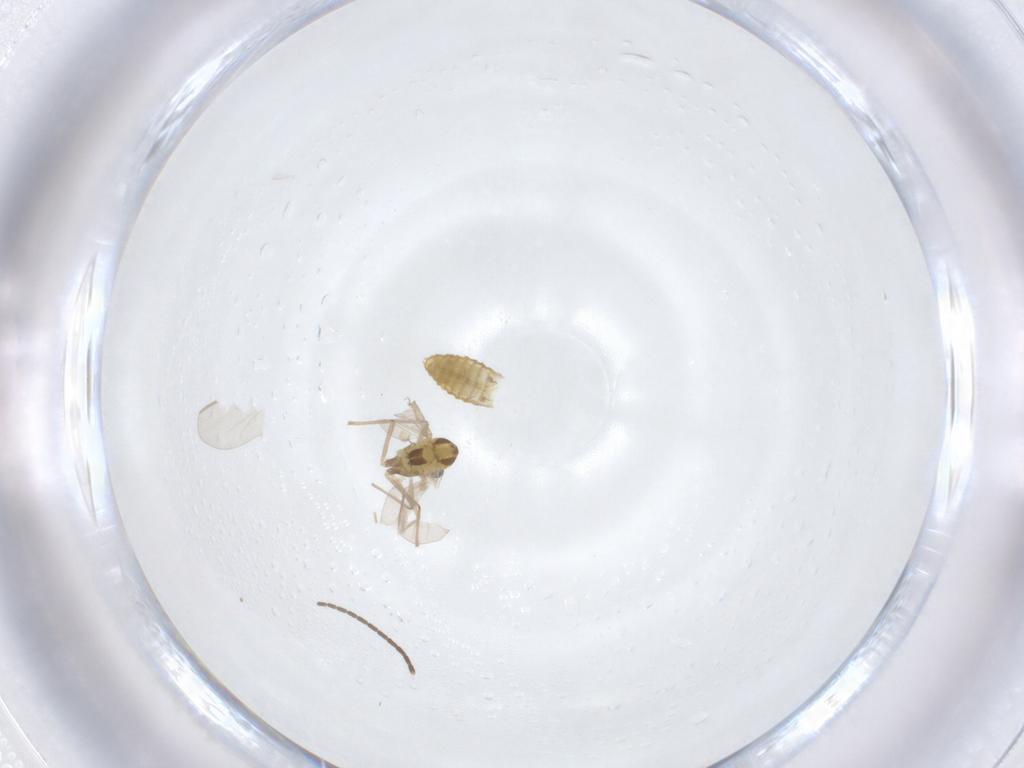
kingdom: Animalia
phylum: Arthropoda
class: Insecta
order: Diptera
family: Chironomidae
